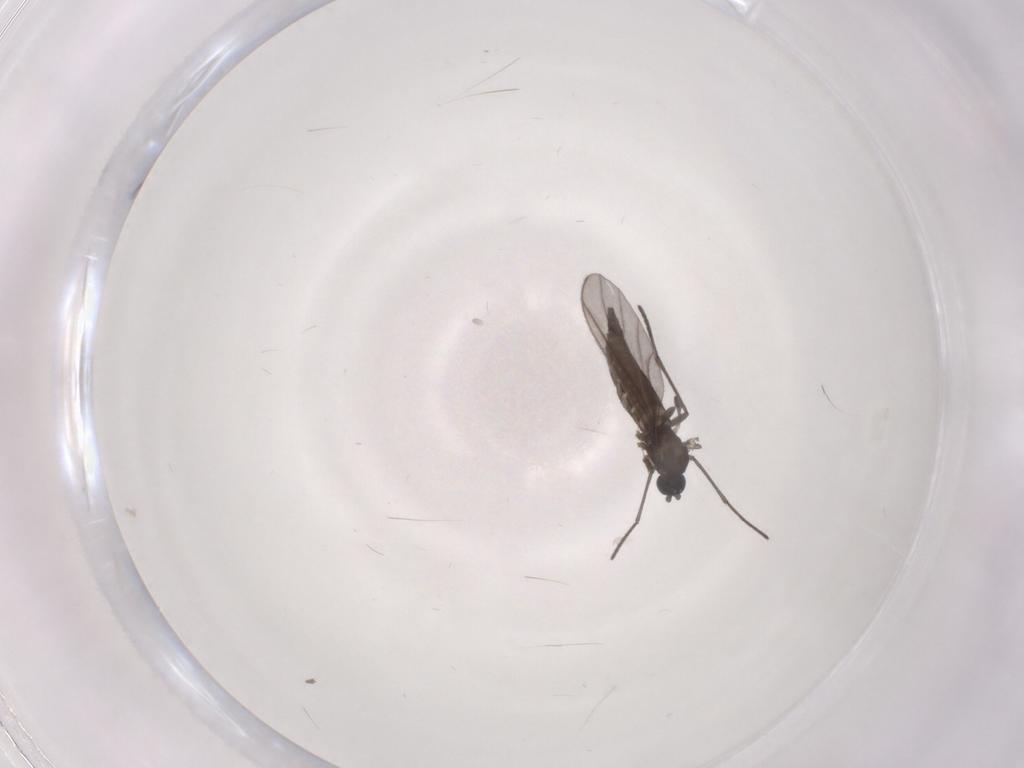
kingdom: Animalia
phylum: Arthropoda
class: Insecta
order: Diptera
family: Sciaridae
